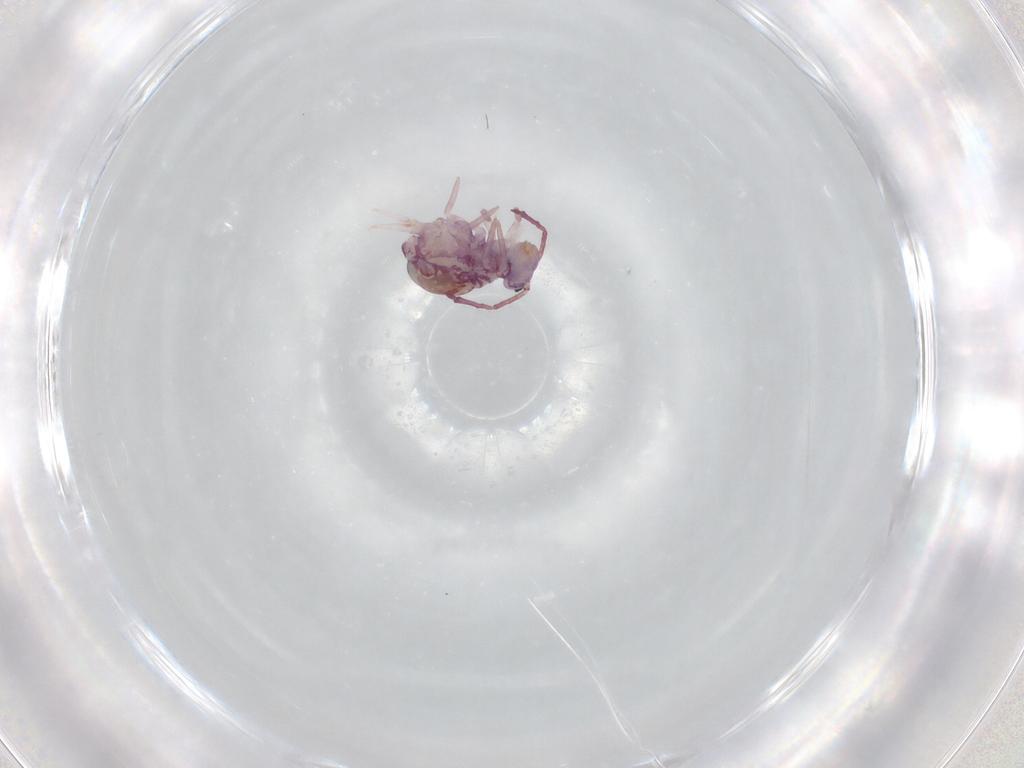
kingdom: Animalia
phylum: Arthropoda
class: Collembola
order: Symphypleona
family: Dicyrtomidae
